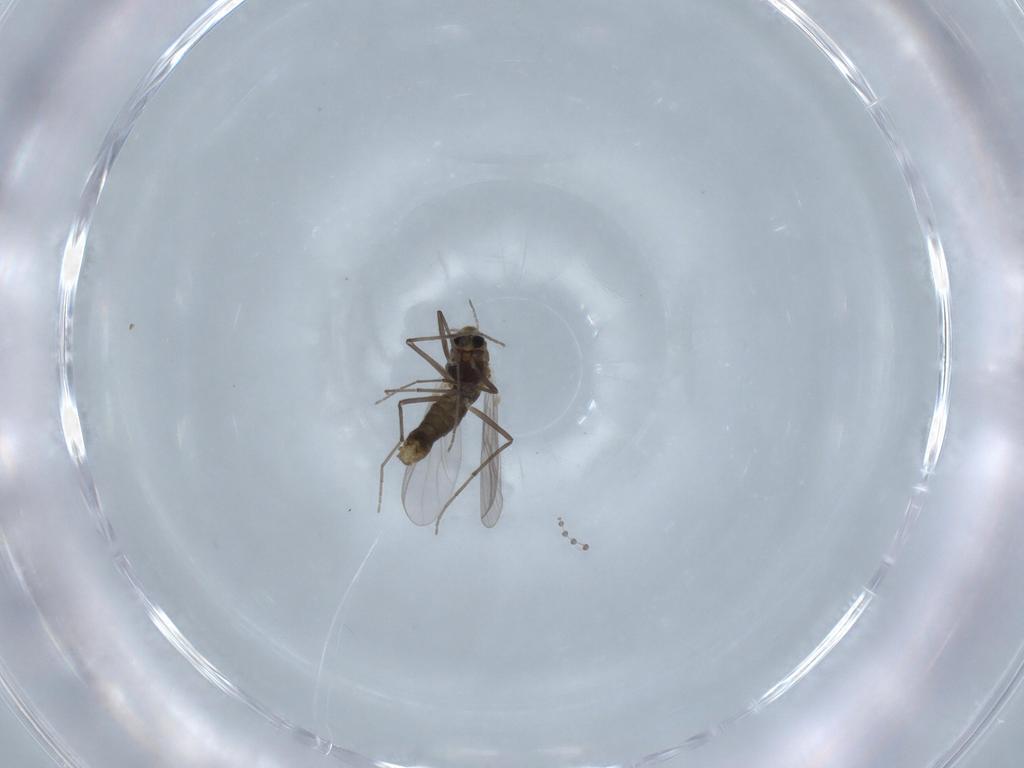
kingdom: Animalia
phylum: Arthropoda
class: Insecta
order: Diptera
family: Chironomidae
